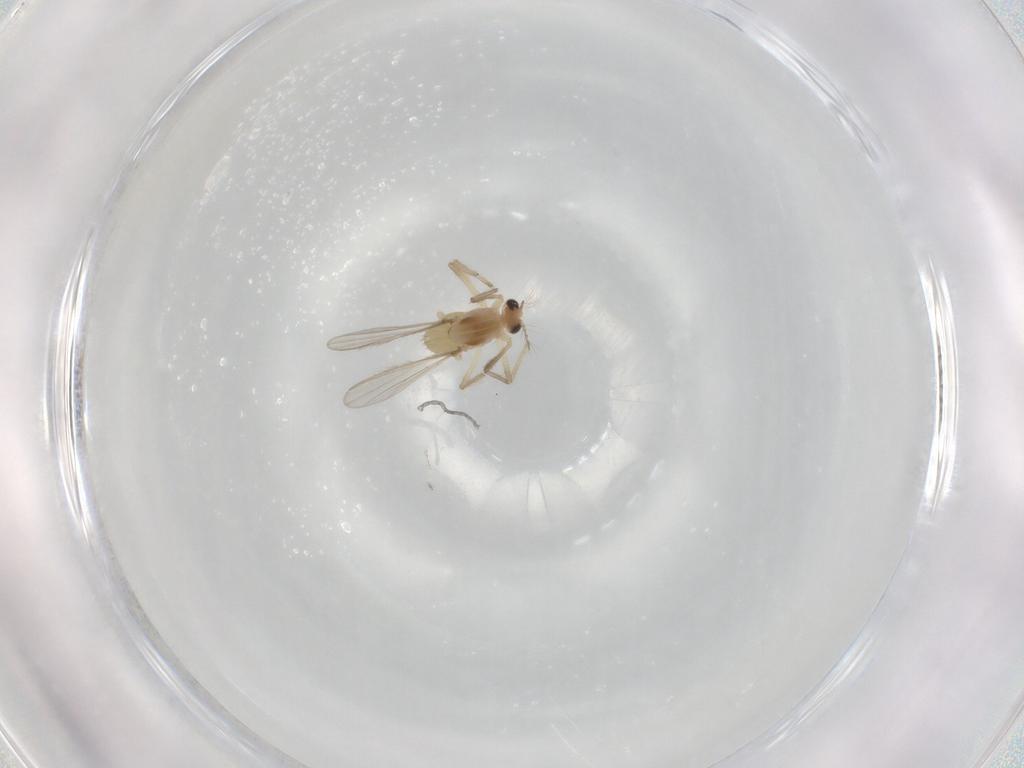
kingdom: Animalia
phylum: Arthropoda
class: Insecta
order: Diptera
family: Chironomidae
